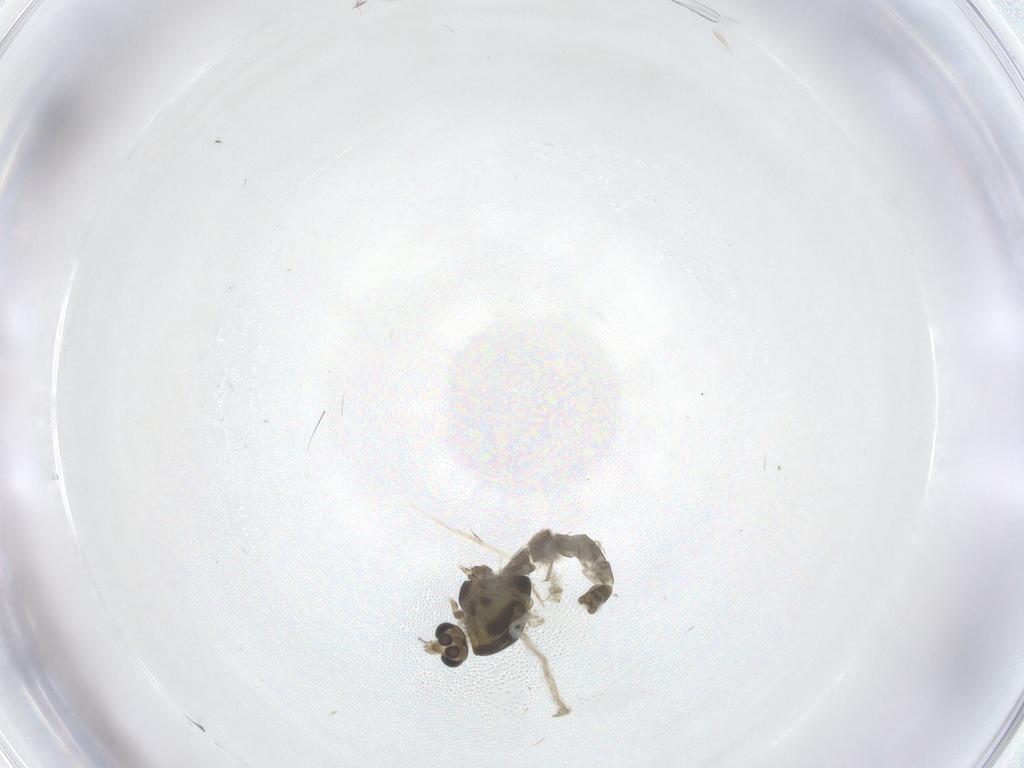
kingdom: Animalia
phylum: Arthropoda
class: Insecta
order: Diptera
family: Chironomidae
